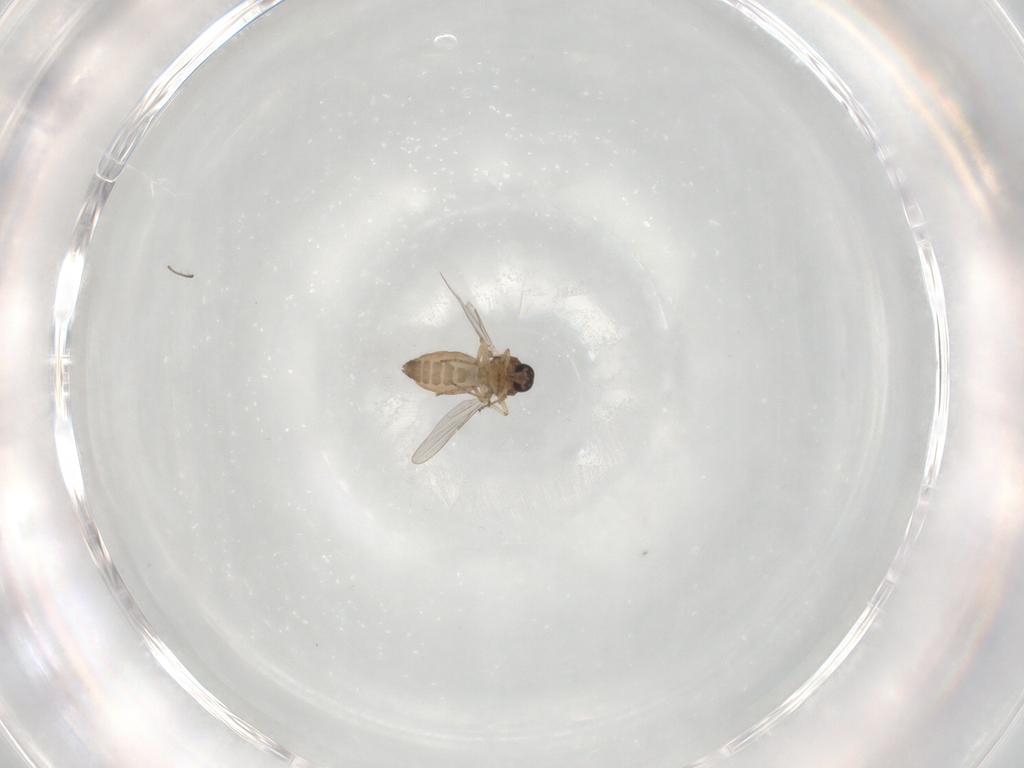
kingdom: Animalia
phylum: Arthropoda
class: Insecta
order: Diptera
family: Ceratopogonidae
